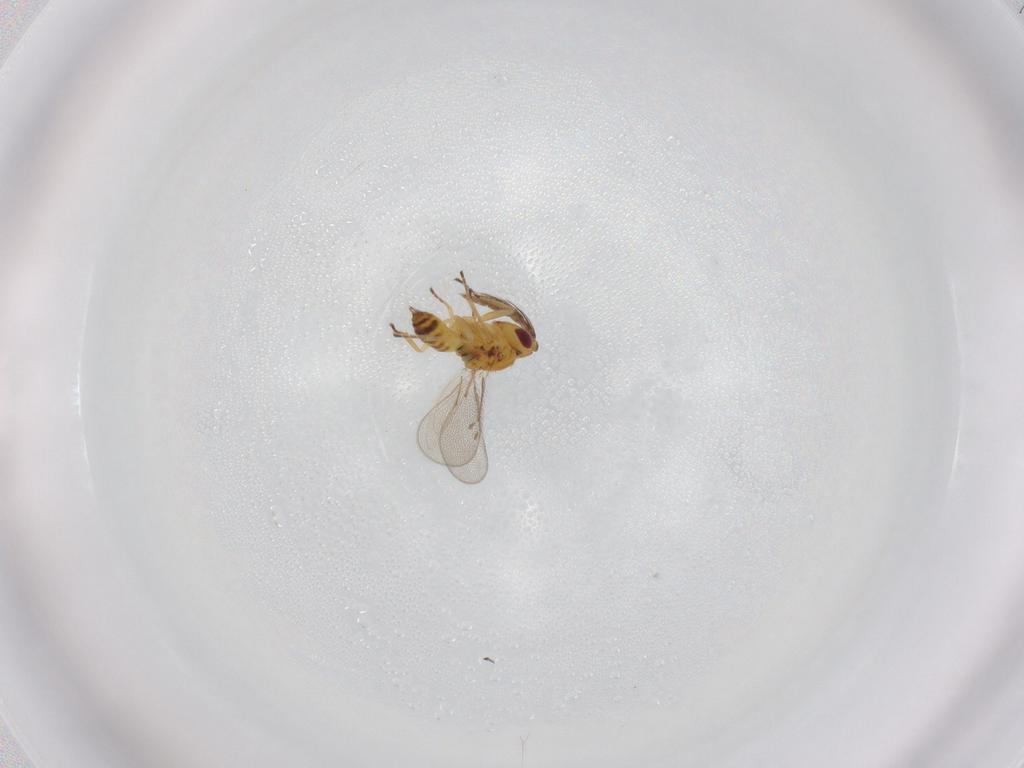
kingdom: Animalia
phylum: Arthropoda
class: Insecta
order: Hymenoptera
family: Eulophidae
